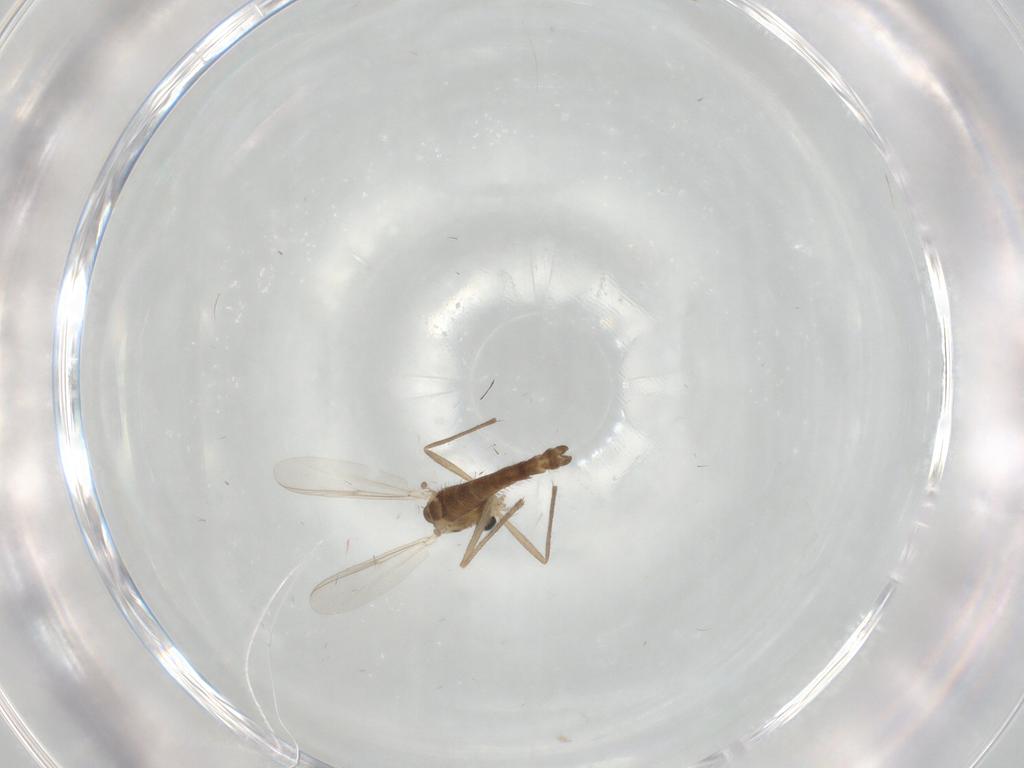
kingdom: Animalia
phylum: Arthropoda
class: Insecta
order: Diptera
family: Chironomidae
